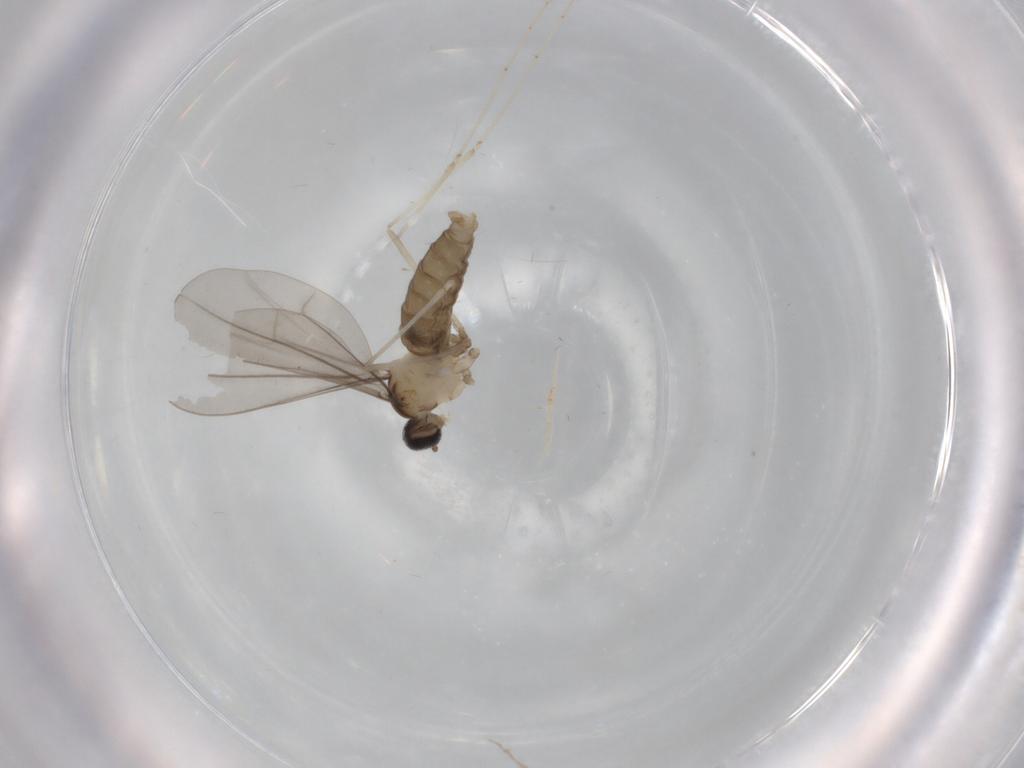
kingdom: Animalia
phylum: Arthropoda
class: Insecta
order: Diptera
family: Cecidomyiidae
